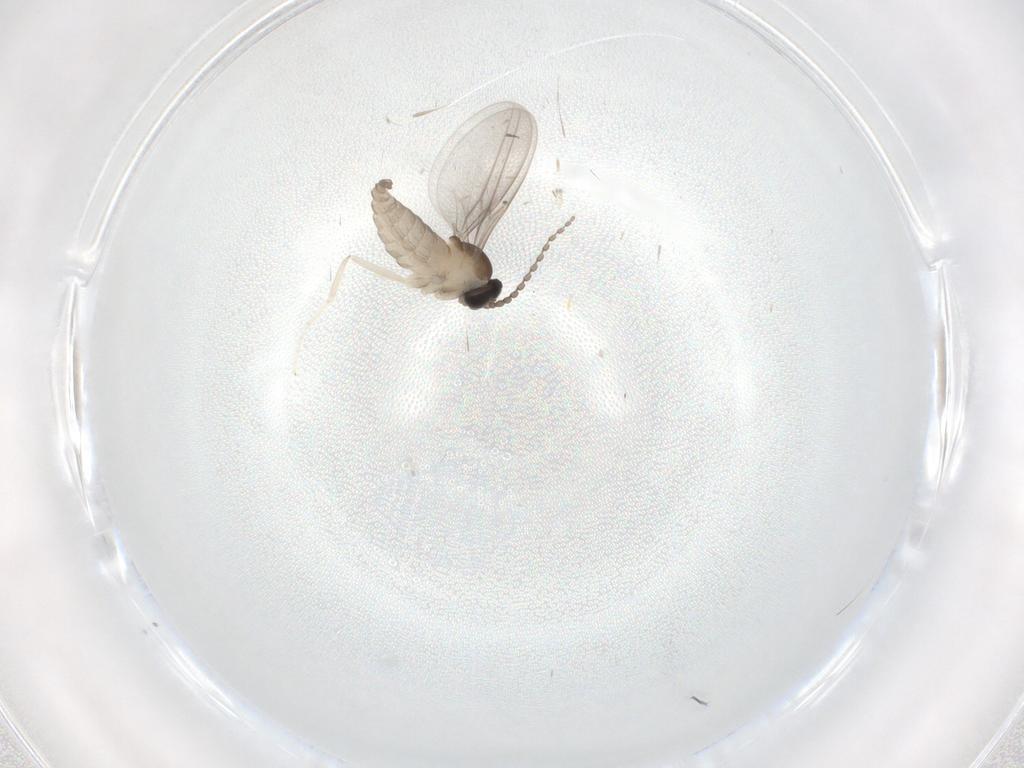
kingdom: Animalia
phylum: Arthropoda
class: Insecta
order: Diptera
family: Cecidomyiidae
